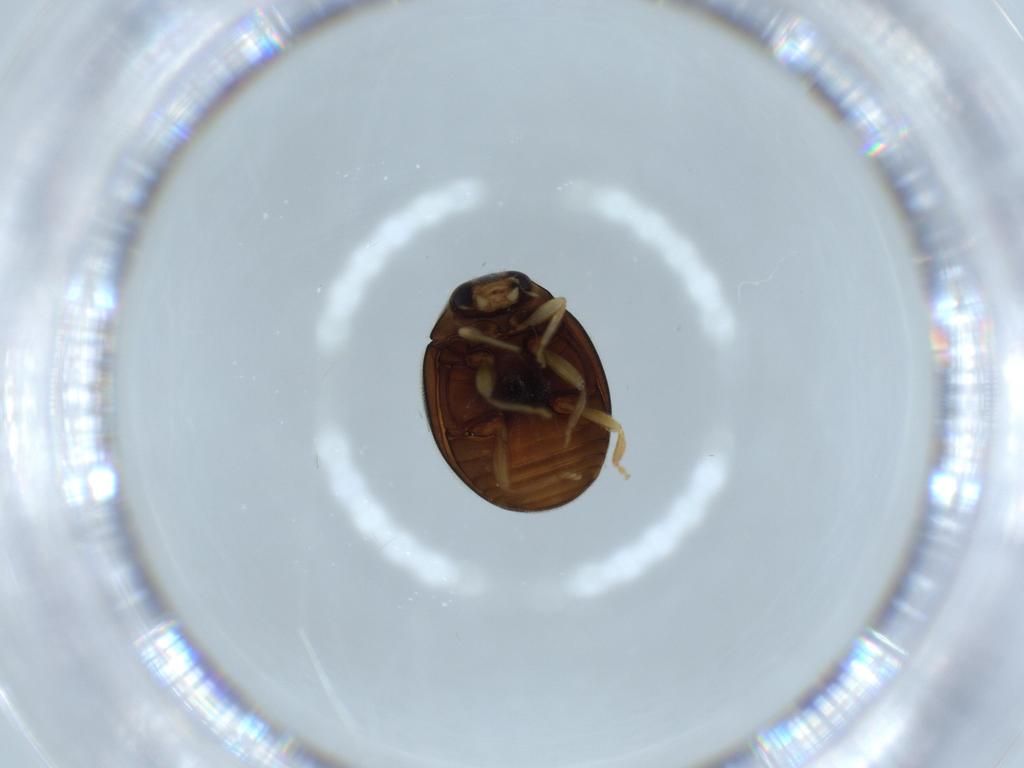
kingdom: Animalia
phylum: Arthropoda
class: Insecta
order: Coleoptera
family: Coccinellidae
